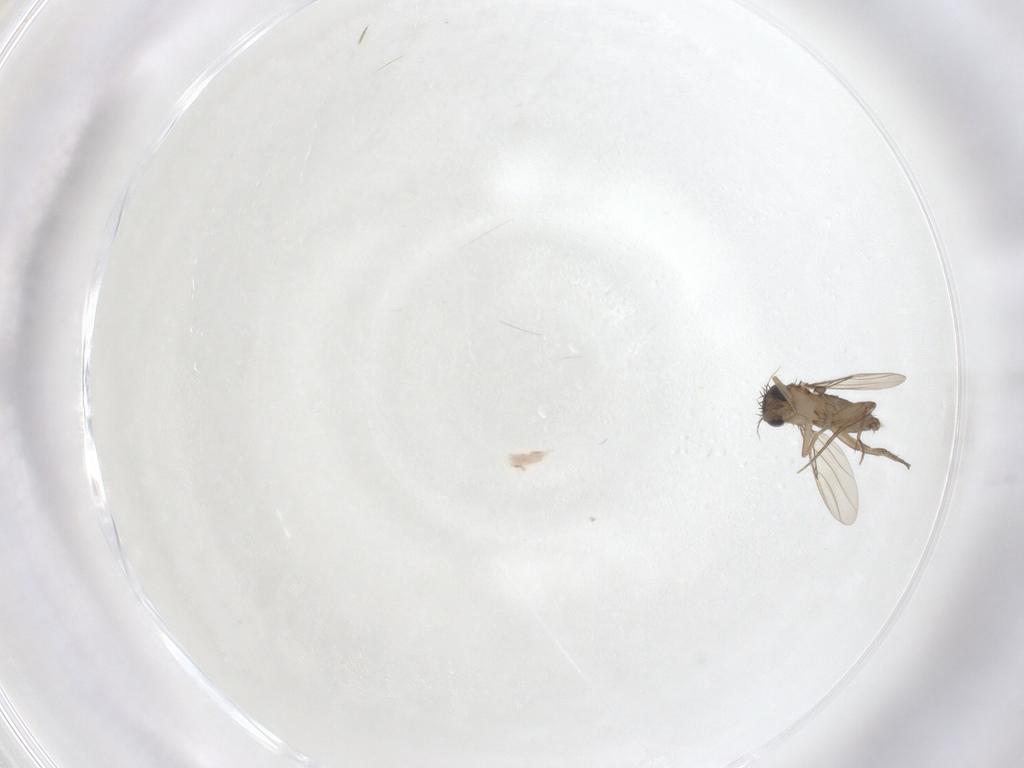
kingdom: Animalia
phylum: Arthropoda
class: Insecta
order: Diptera
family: Phoridae
